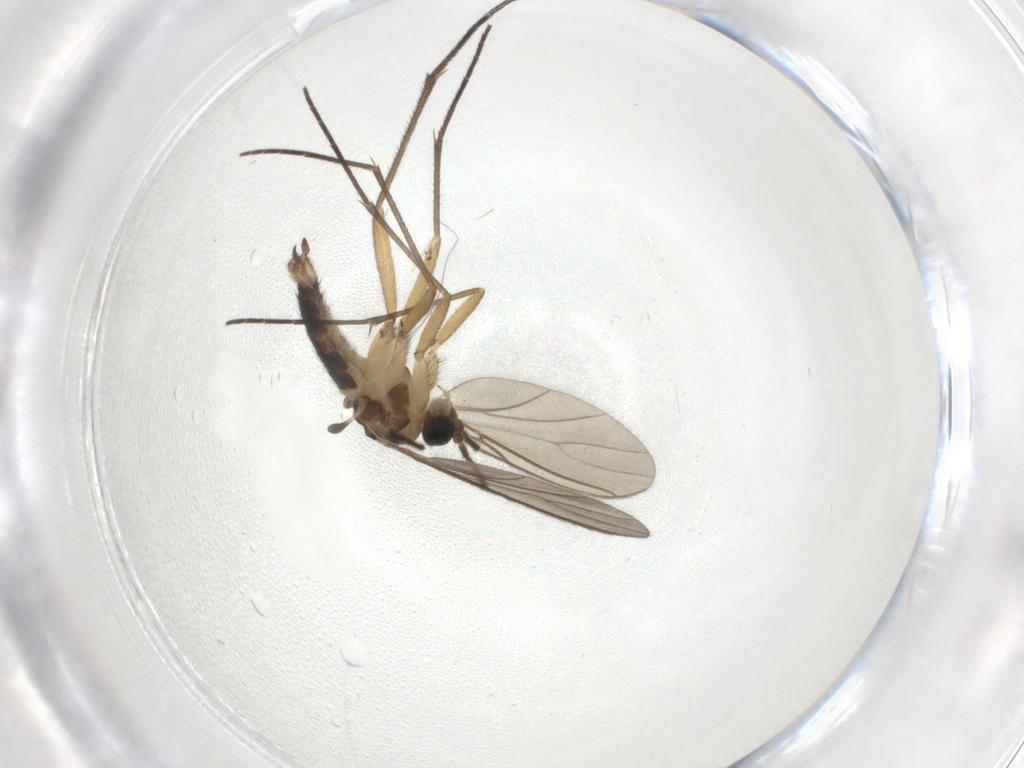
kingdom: Animalia
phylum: Arthropoda
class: Insecta
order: Diptera
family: Sciaridae
